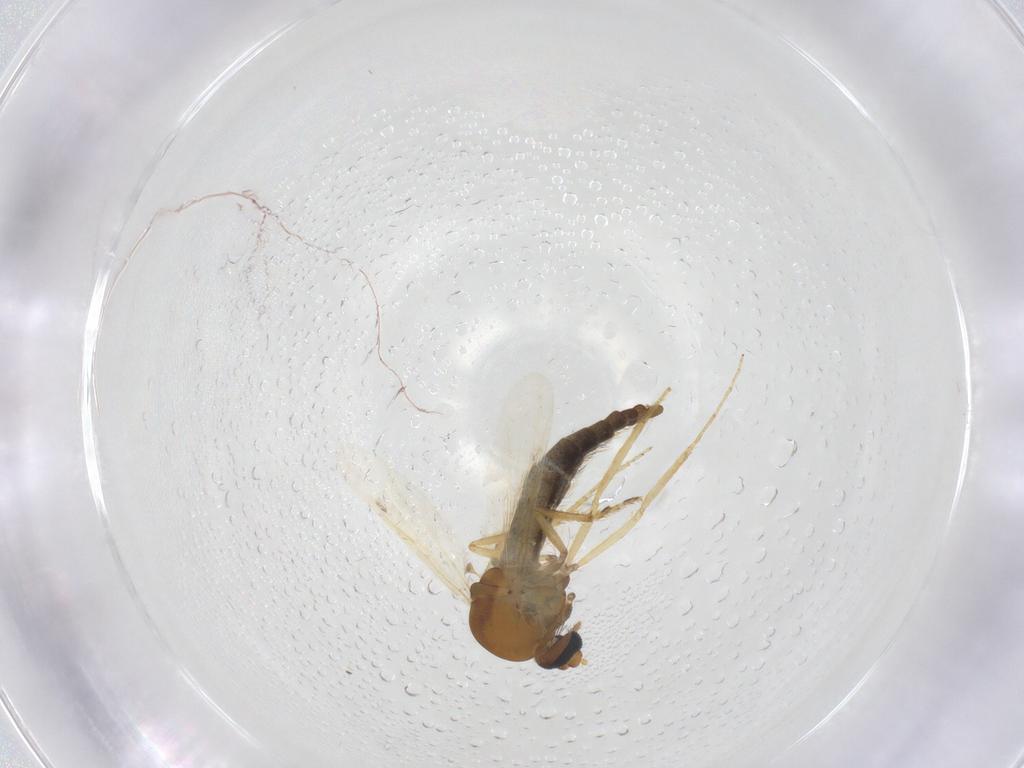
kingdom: Animalia
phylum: Arthropoda
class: Insecta
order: Diptera
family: Ceratopogonidae
